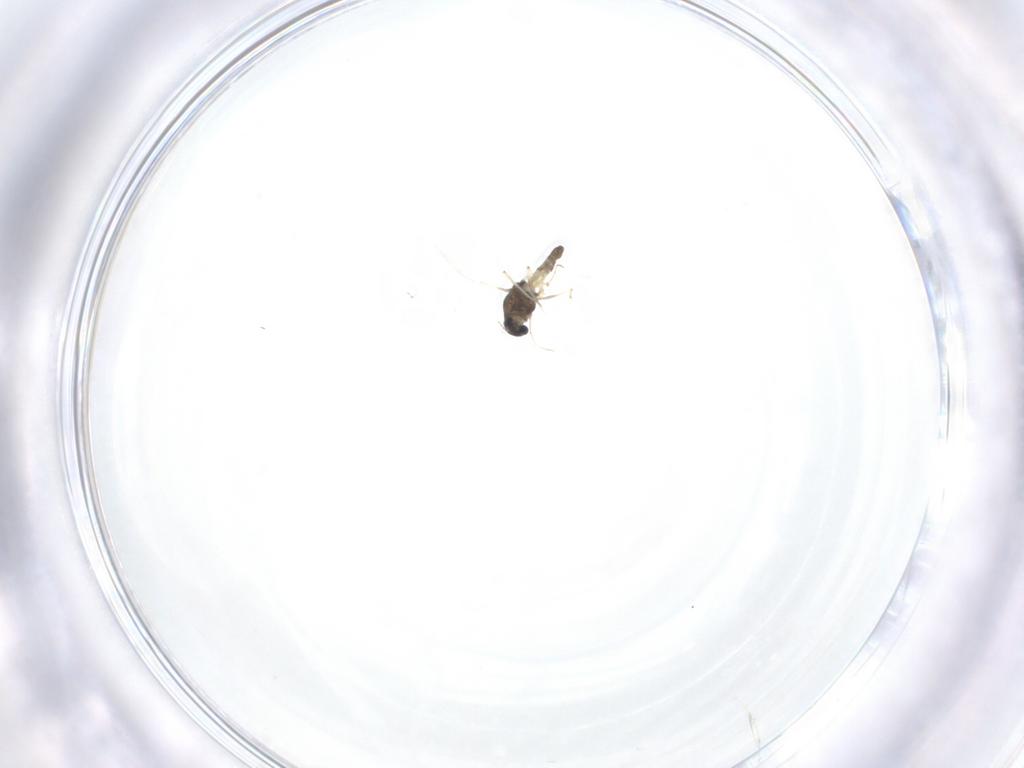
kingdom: Animalia
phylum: Arthropoda
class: Insecta
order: Diptera
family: Chironomidae
